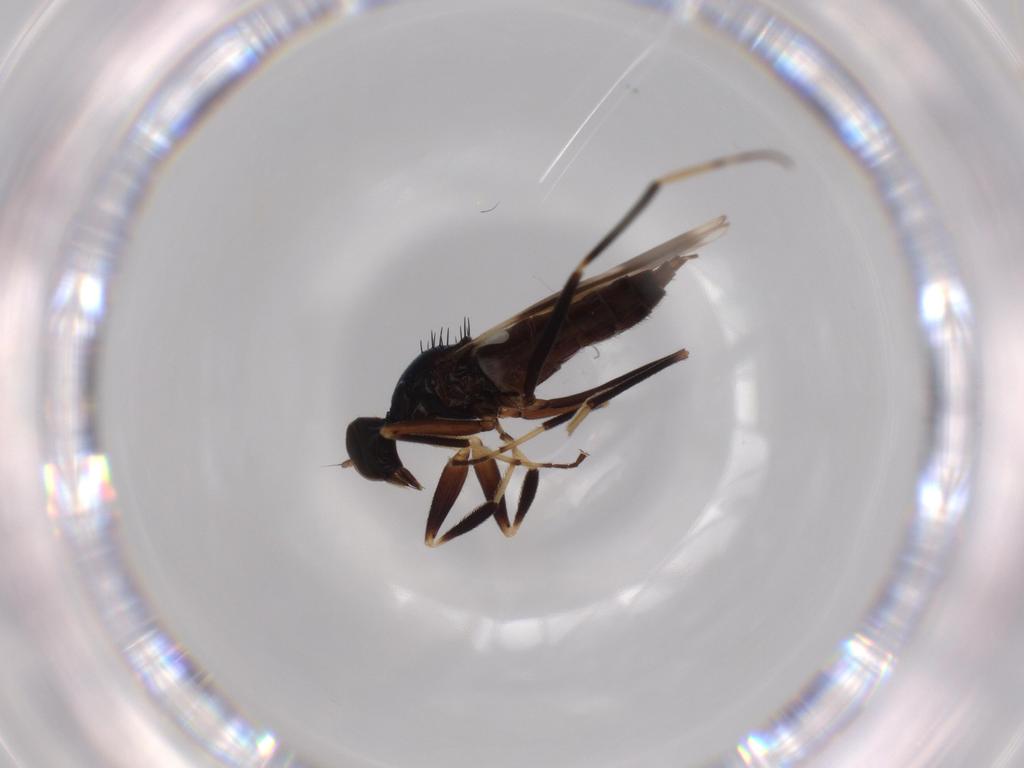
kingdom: Animalia
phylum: Arthropoda
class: Insecta
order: Diptera
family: Hybotidae
